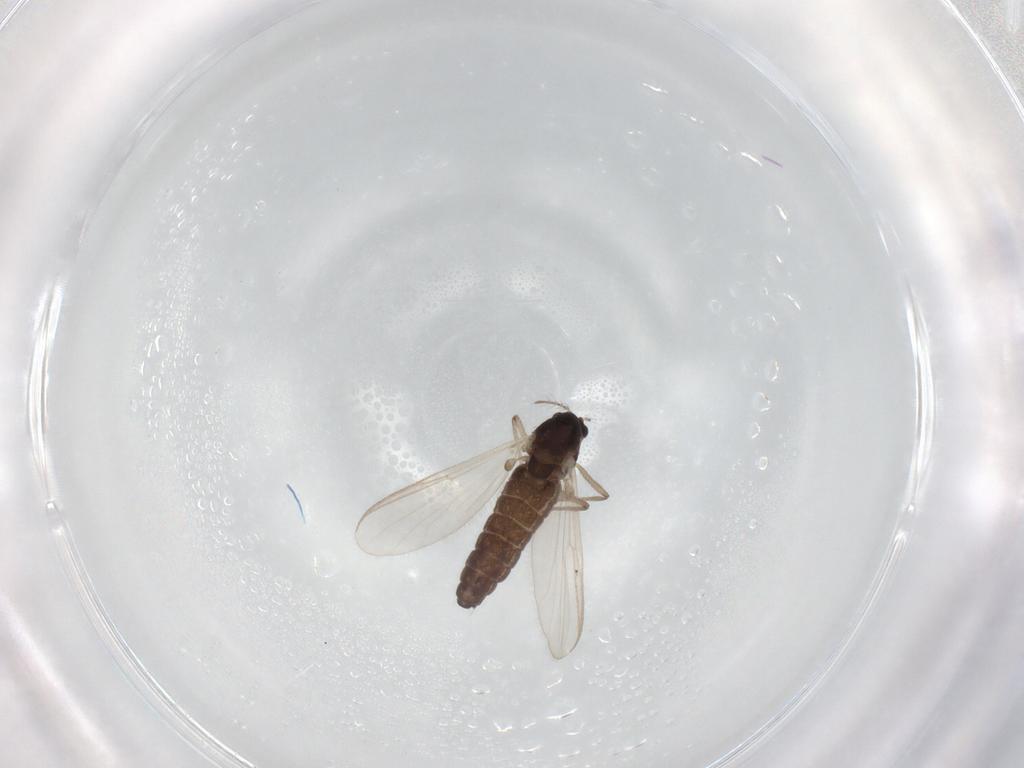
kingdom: Animalia
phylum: Arthropoda
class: Insecta
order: Diptera
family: Chironomidae
